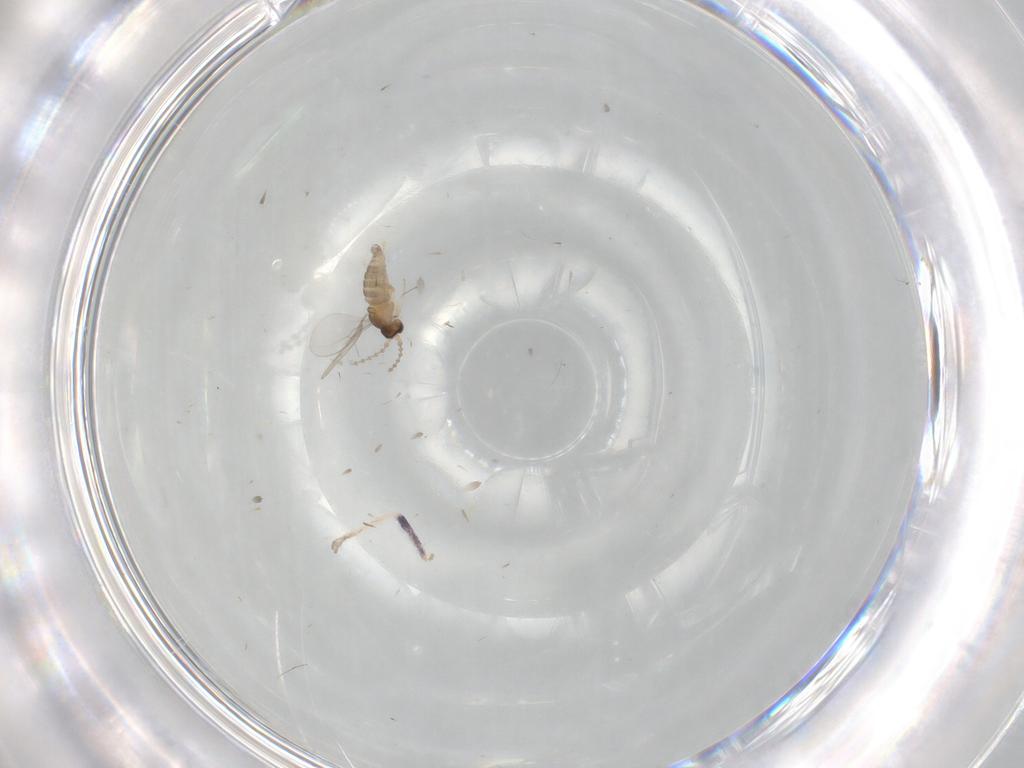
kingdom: Animalia
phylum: Arthropoda
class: Insecta
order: Diptera
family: Cecidomyiidae
